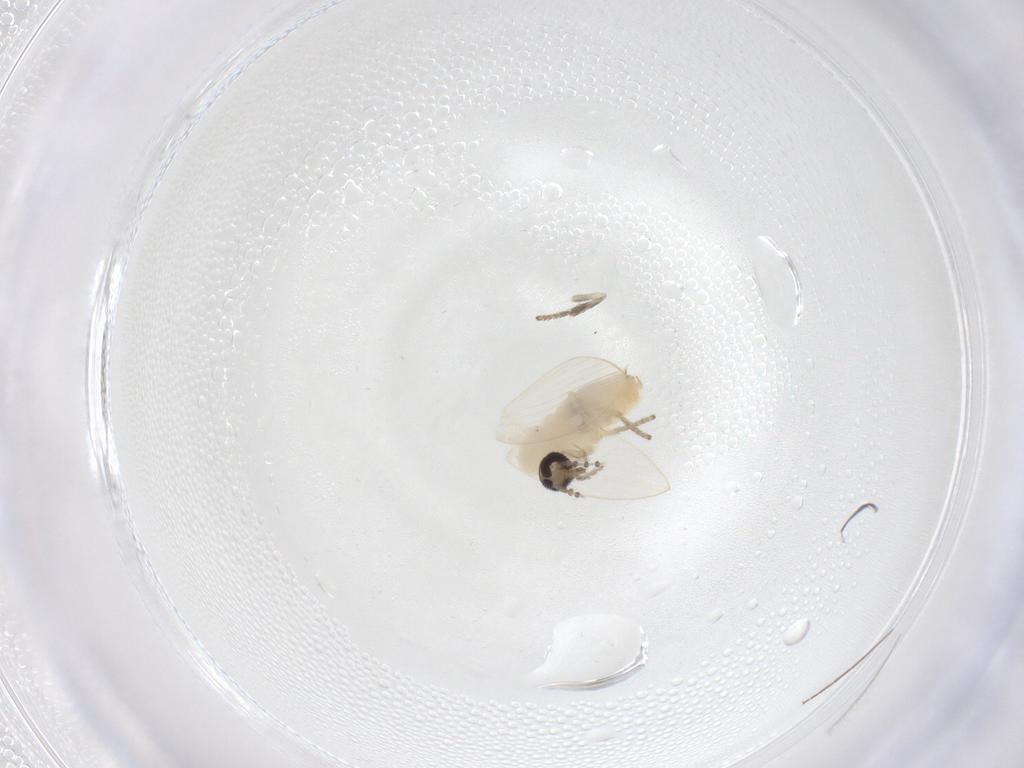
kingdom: Animalia
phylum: Arthropoda
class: Insecta
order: Diptera
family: Psychodidae
